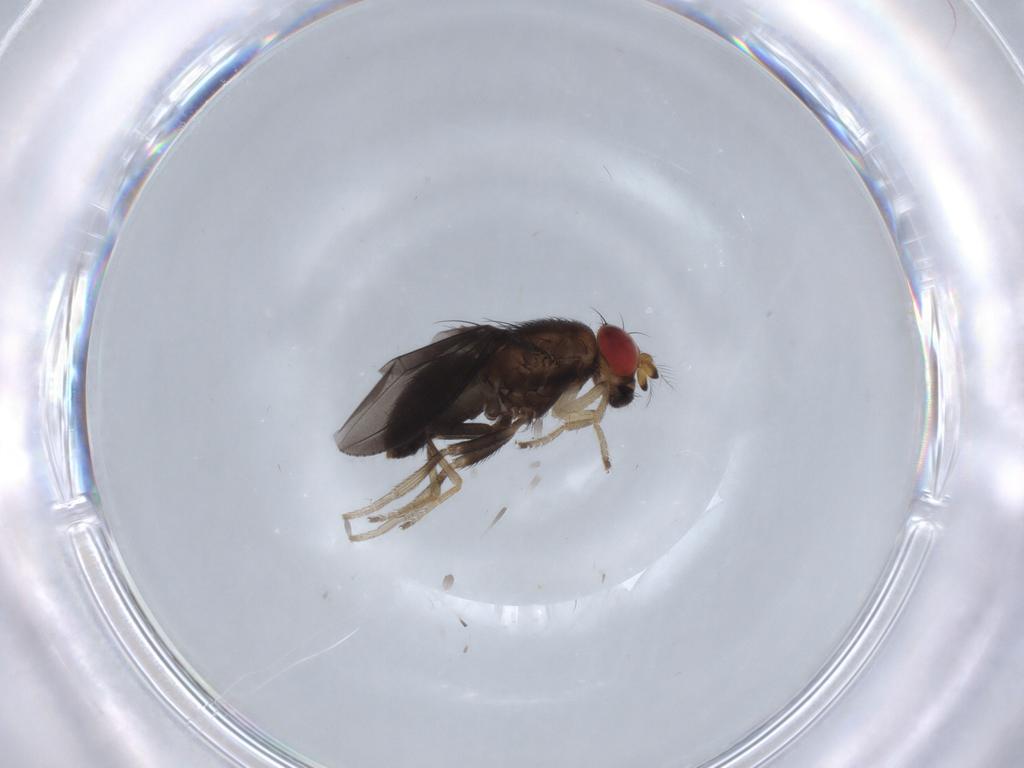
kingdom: Animalia
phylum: Arthropoda
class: Insecta
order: Diptera
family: Drosophilidae
